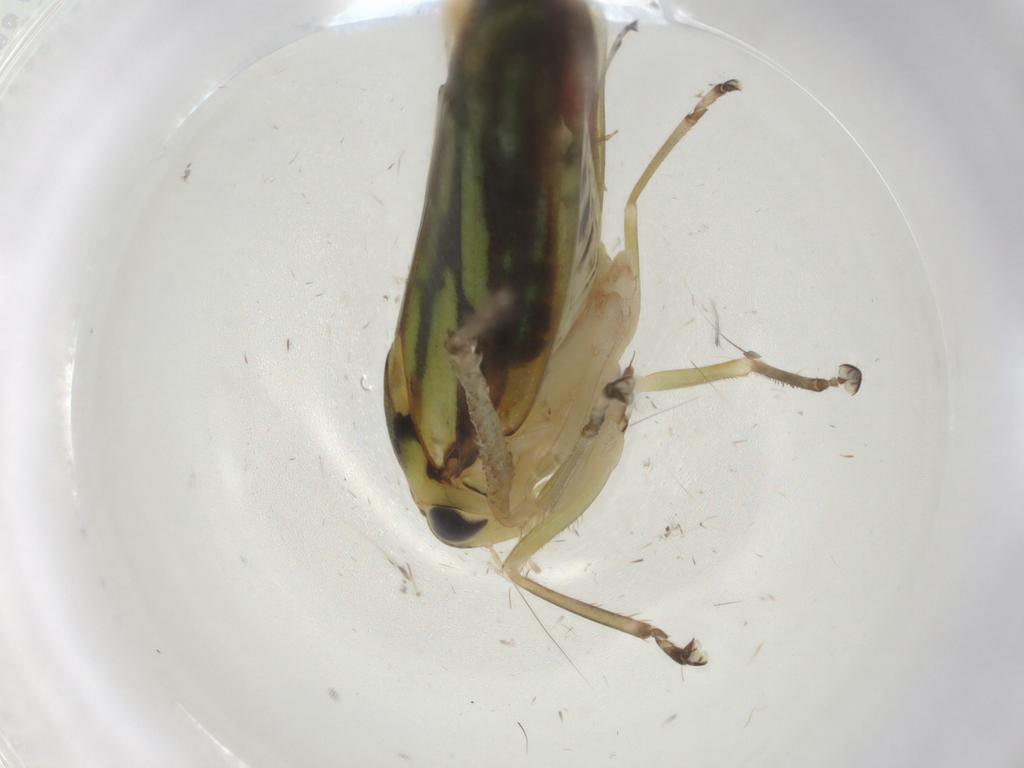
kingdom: Animalia
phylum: Arthropoda
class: Insecta
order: Hemiptera
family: Cicadellidae
